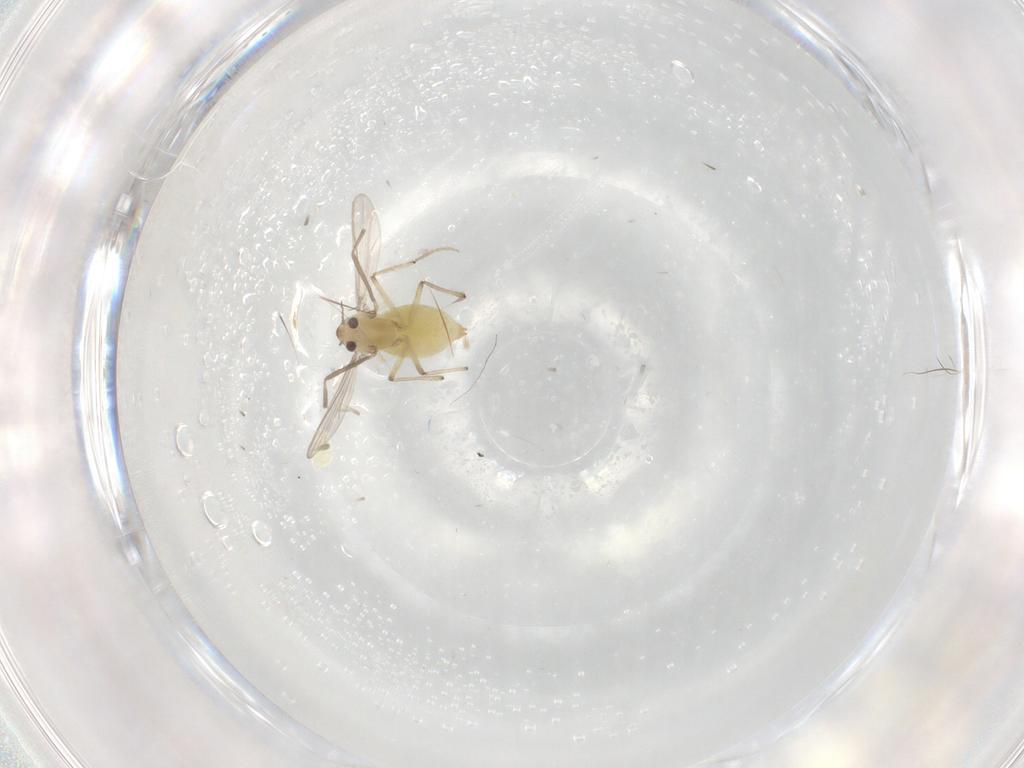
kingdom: Animalia
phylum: Arthropoda
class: Insecta
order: Diptera
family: Chironomidae
